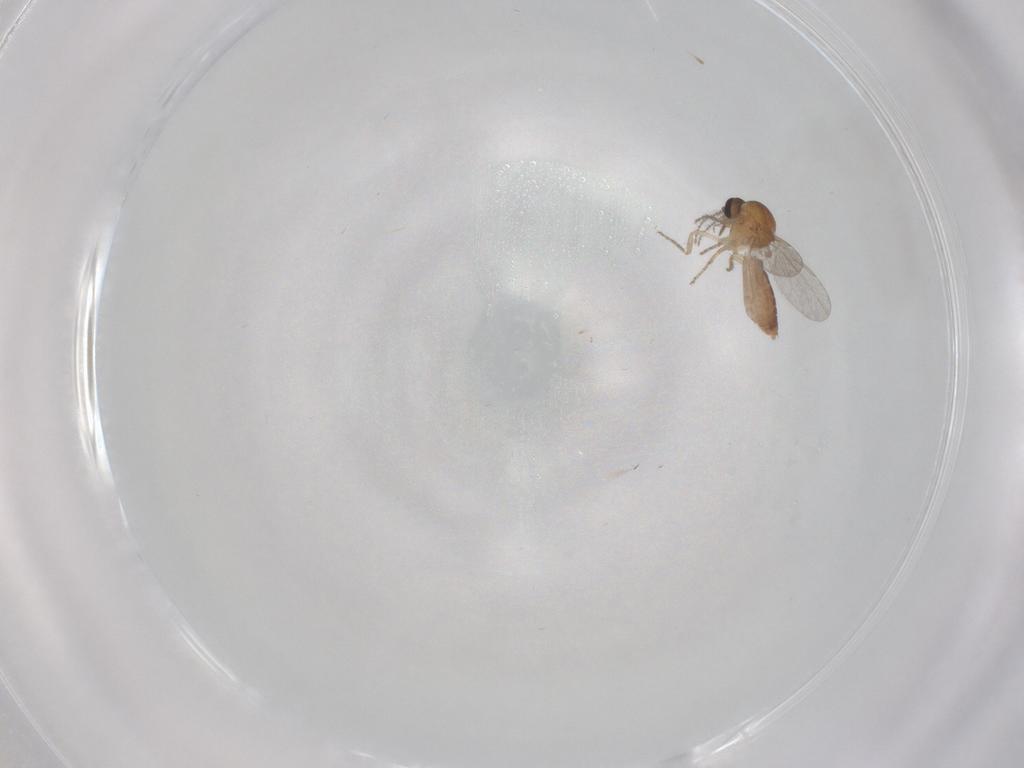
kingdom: Animalia
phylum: Arthropoda
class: Insecta
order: Diptera
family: Ceratopogonidae
